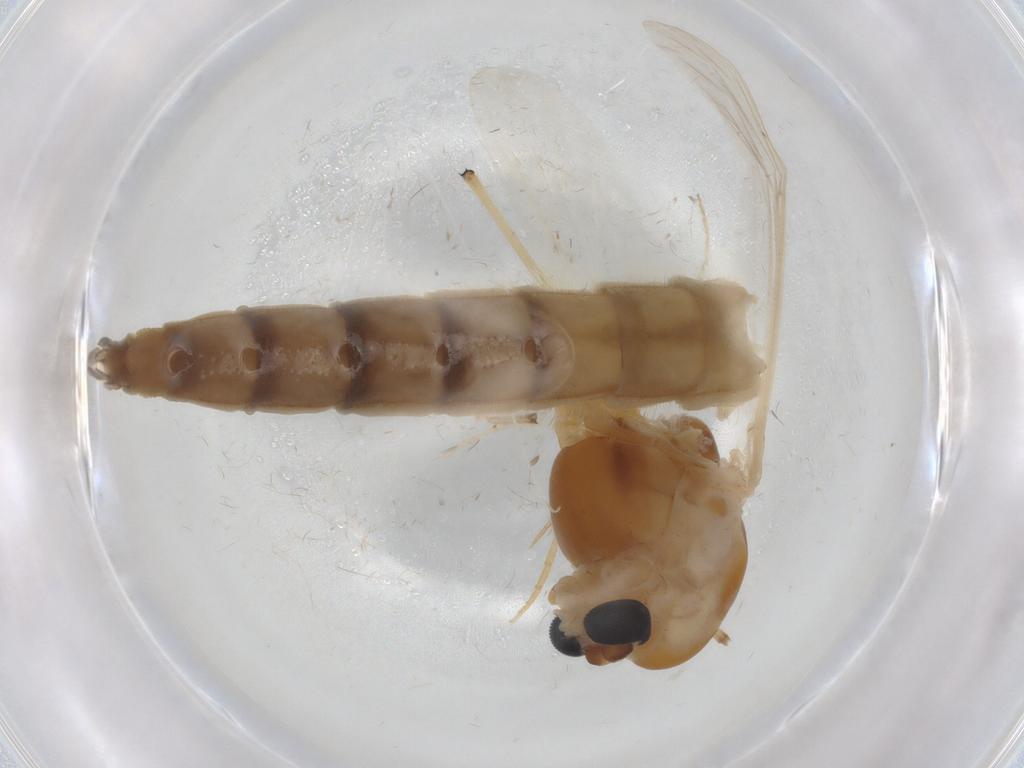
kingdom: Animalia
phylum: Arthropoda
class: Insecta
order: Diptera
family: Chironomidae
